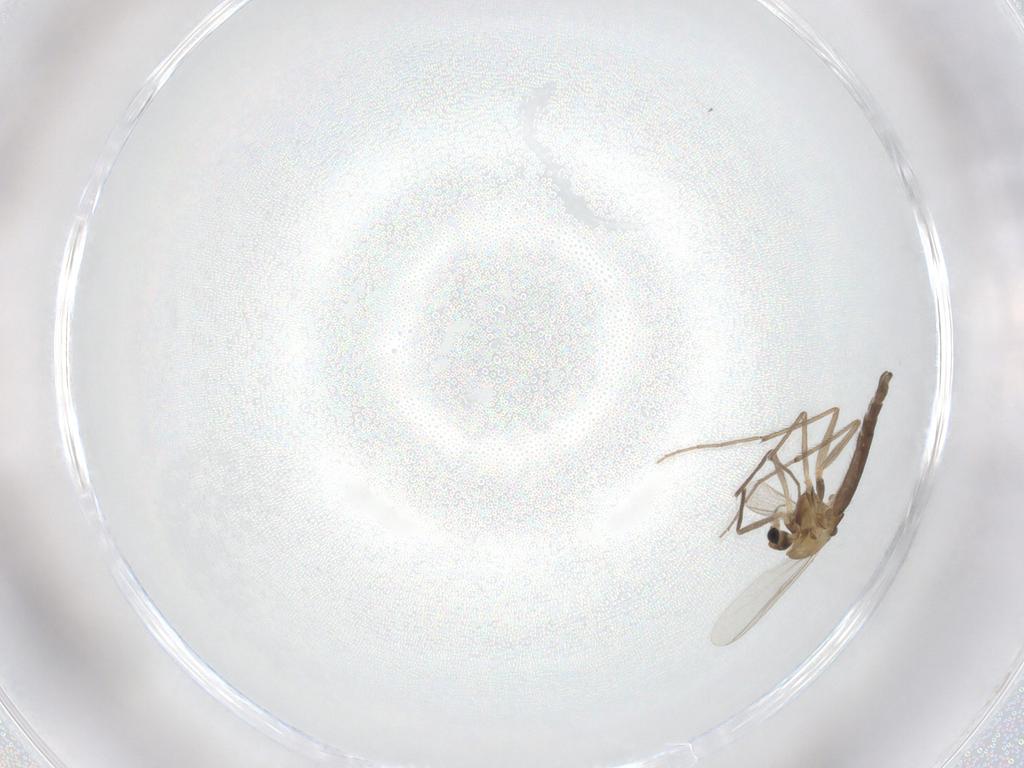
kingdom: Animalia
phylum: Arthropoda
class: Insecta
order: Diptera
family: Chironomidae
